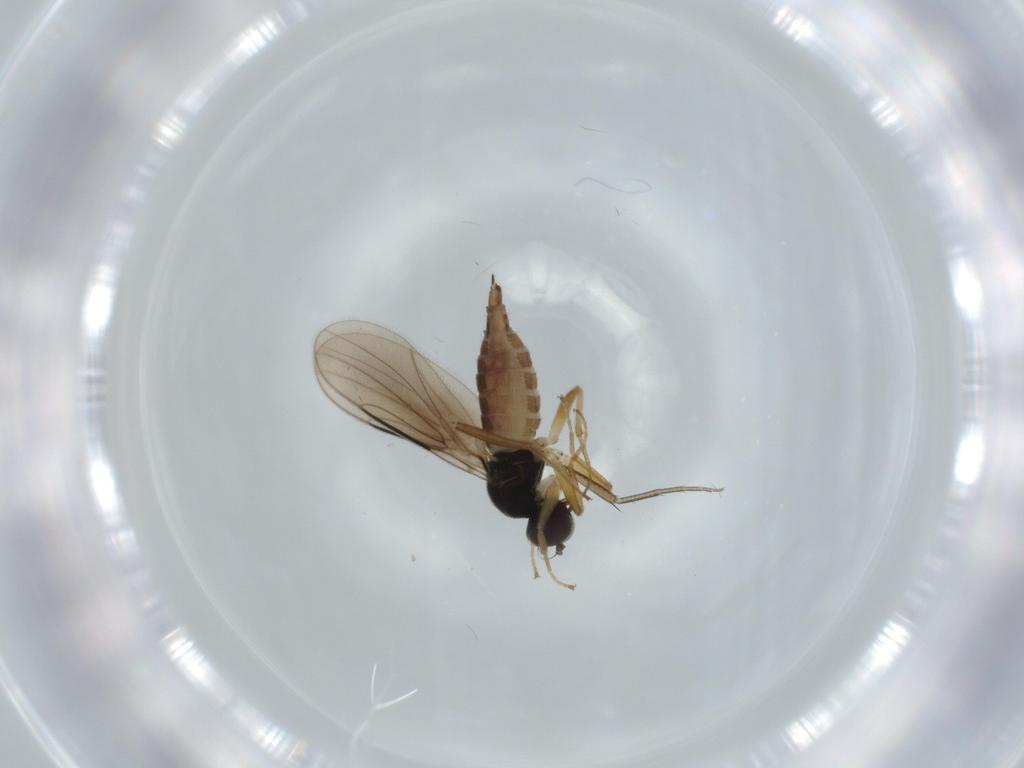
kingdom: Animalia
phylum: Arthropoda
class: Insecta
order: Diptera
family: Hybotidae
